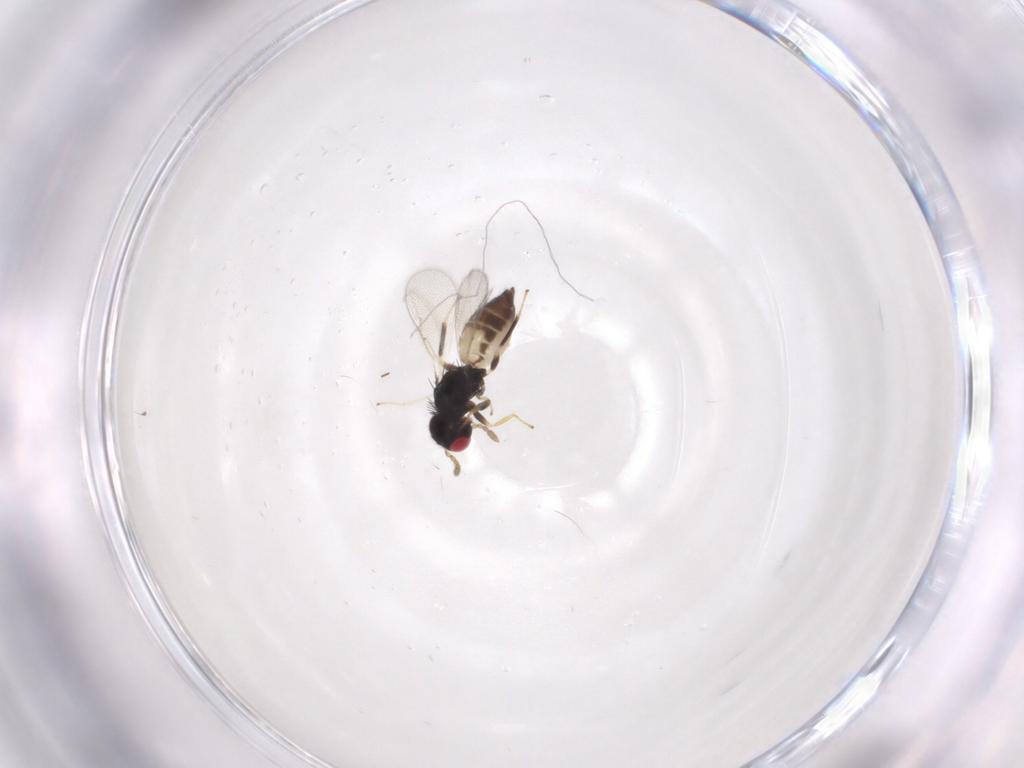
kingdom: Animalia
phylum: Arthropoda
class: Insecta
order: Hymenoptera
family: Eulophidae
